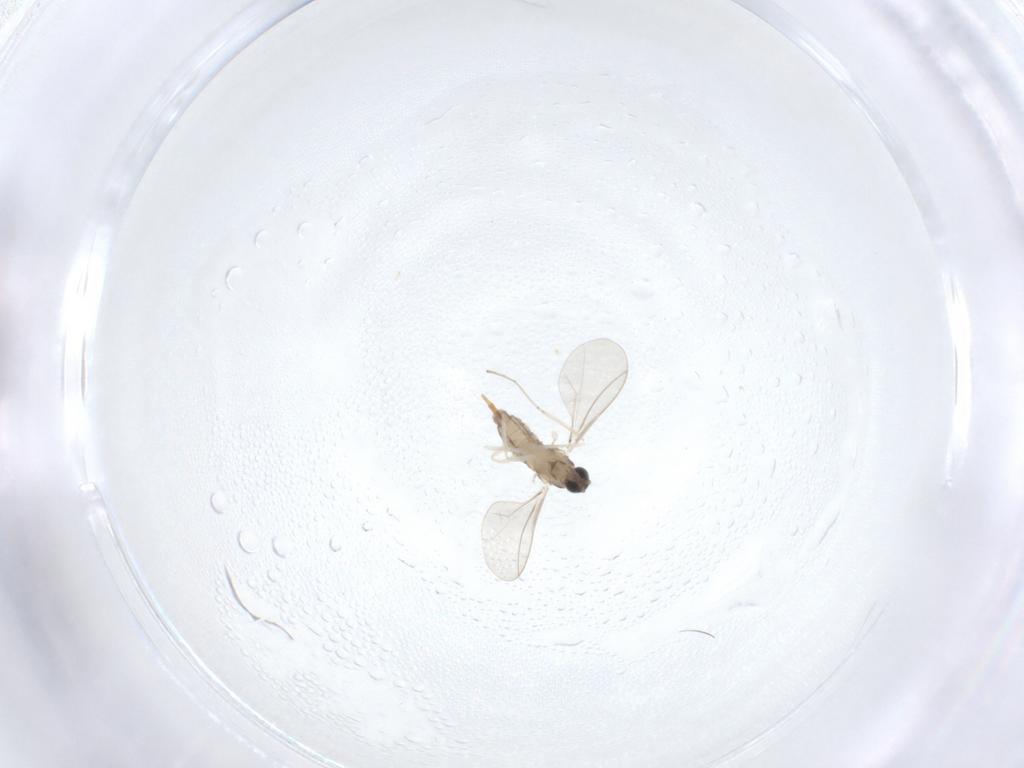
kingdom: Animalia
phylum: Arthropoda
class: Insecta
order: Diptera
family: Cecidomyiidae
